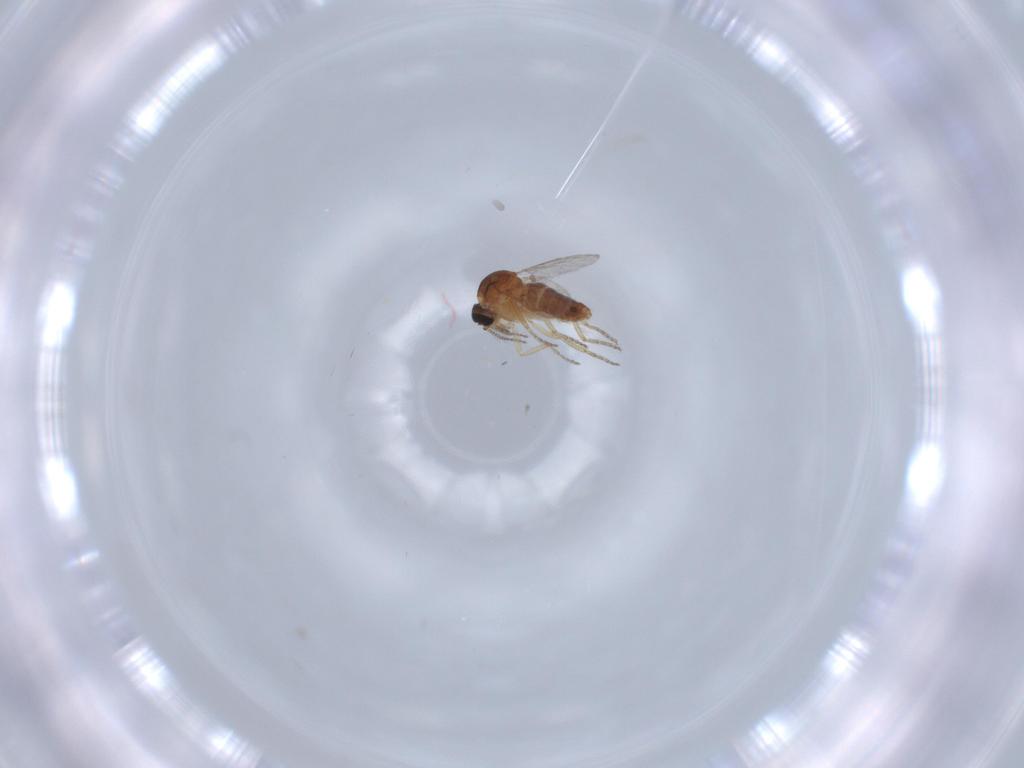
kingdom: Animalia
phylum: Arthropoda
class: Insecta
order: Diptera
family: Ceratopogonidae
